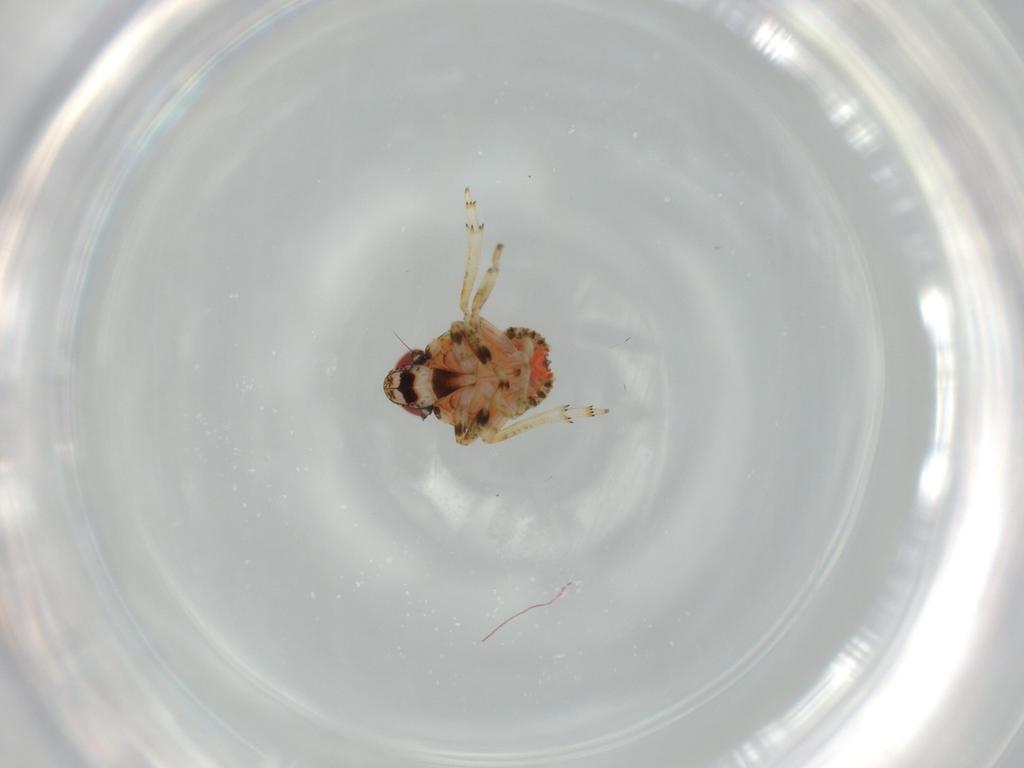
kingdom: Animalia
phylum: Arthropoda
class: Insecta
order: Hemiptera
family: Issidae
